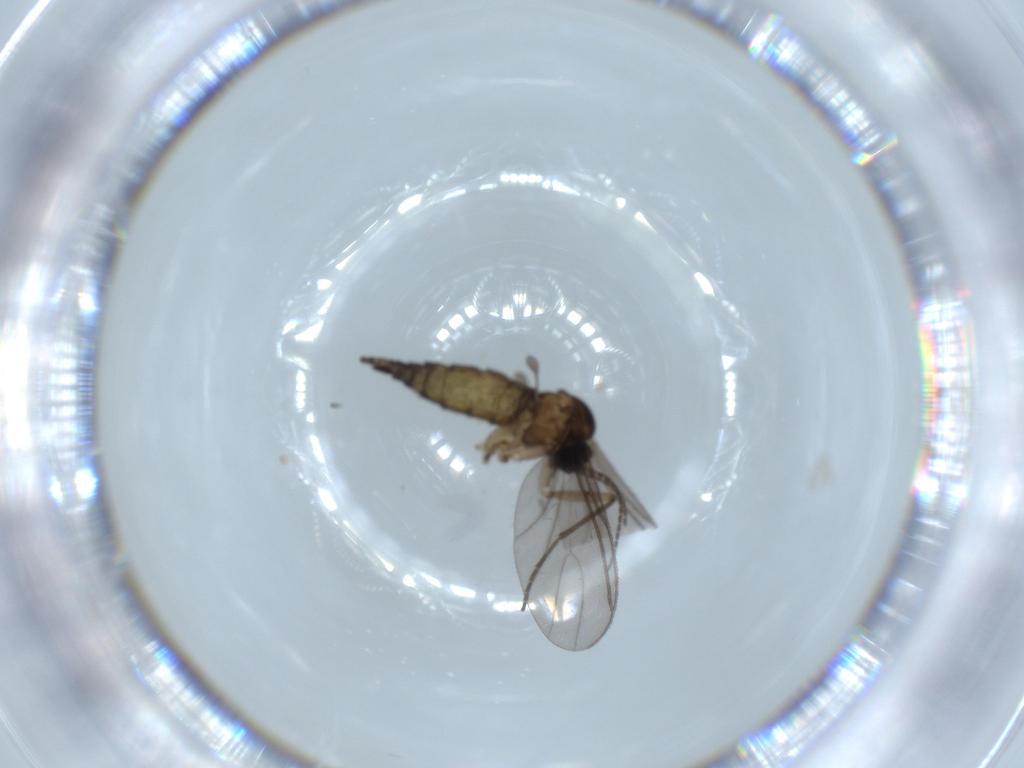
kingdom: Animalia
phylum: Arthropoda
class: Insecta
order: Diptera
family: Sciaridae
